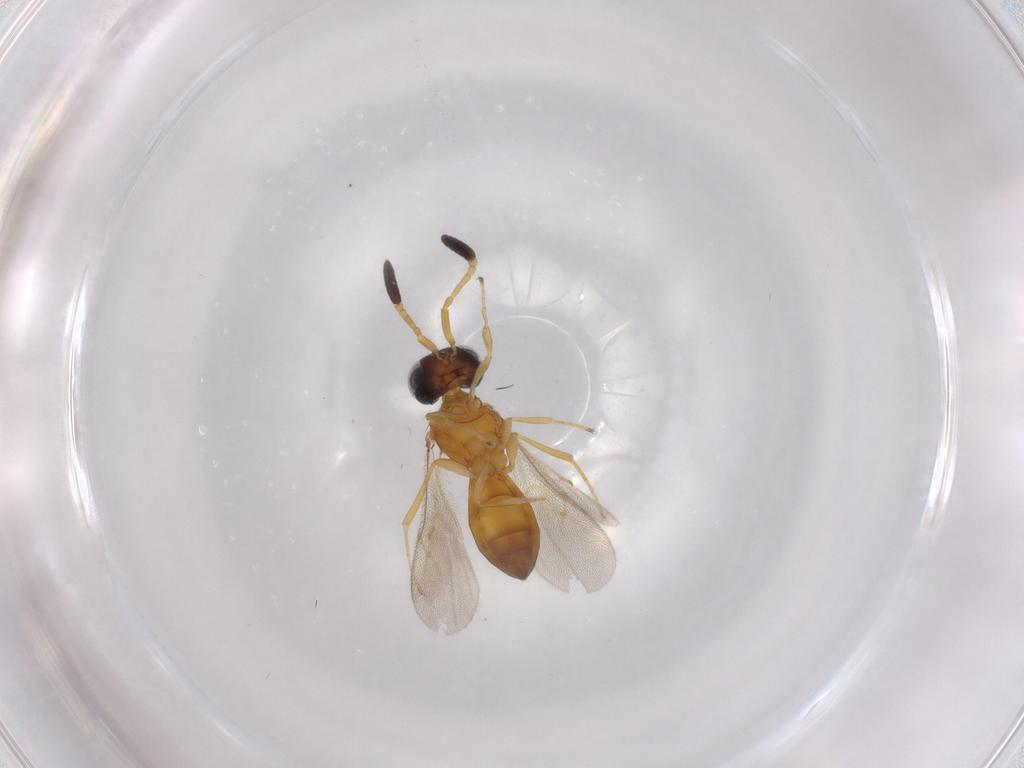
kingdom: Animalia
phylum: Arthropoda
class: Insecta
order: Hymenoptera
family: Scelionidae
